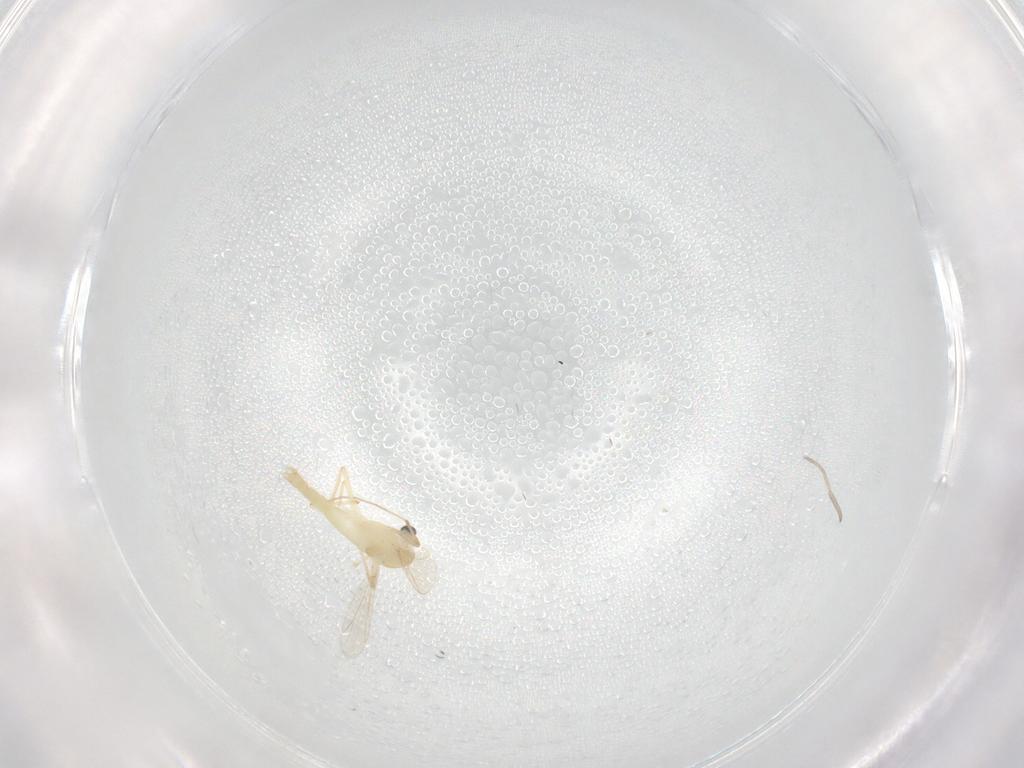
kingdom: Animalia
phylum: Arthropoda
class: Insecta
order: Diptera
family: Chironomidae
